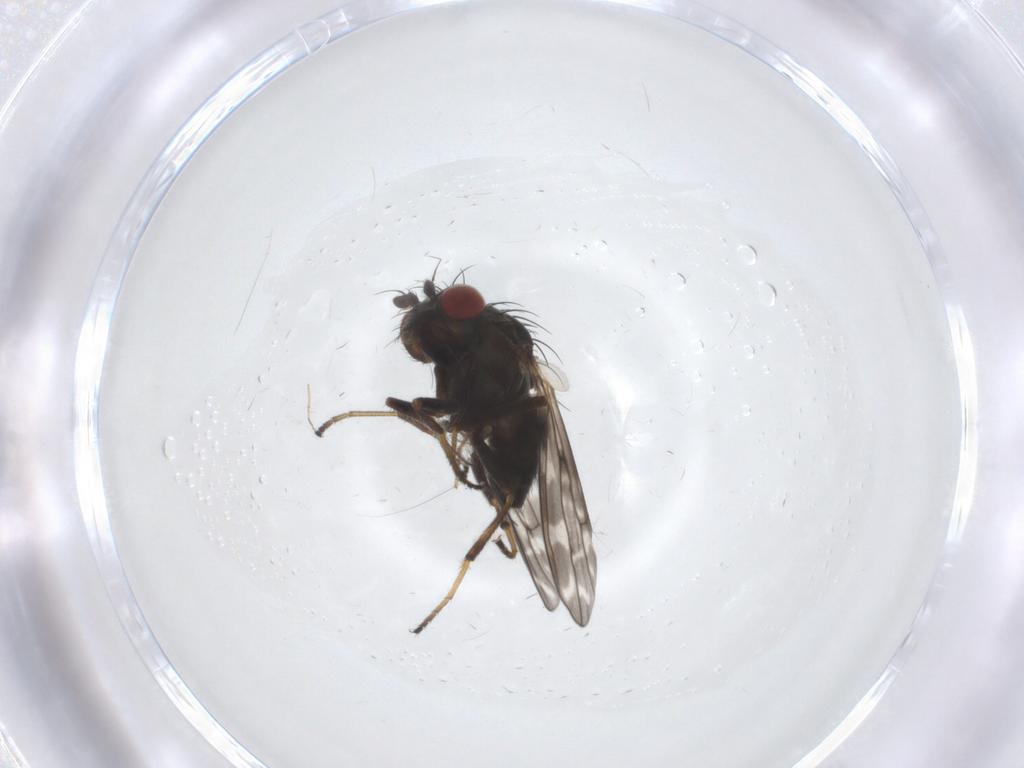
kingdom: Animalia
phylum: Arthropoda
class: Insecta
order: Diptera
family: Ephydridae
